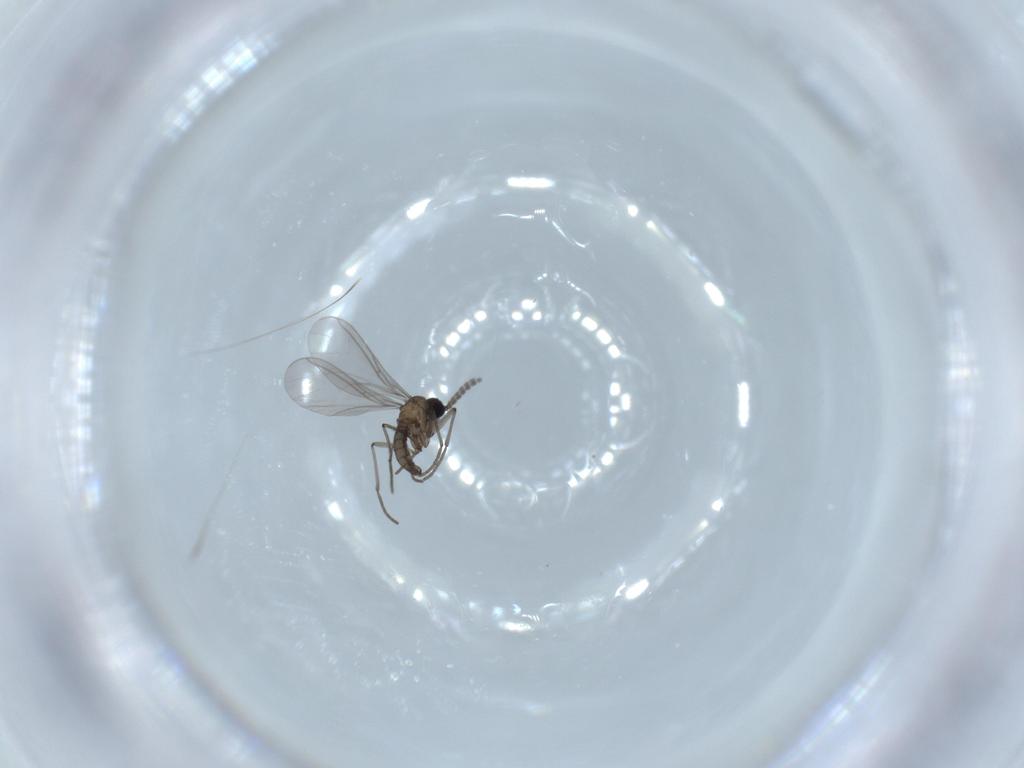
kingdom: Animalia
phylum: Arthropoda
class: Insecta
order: Diptera
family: Sciaridae
